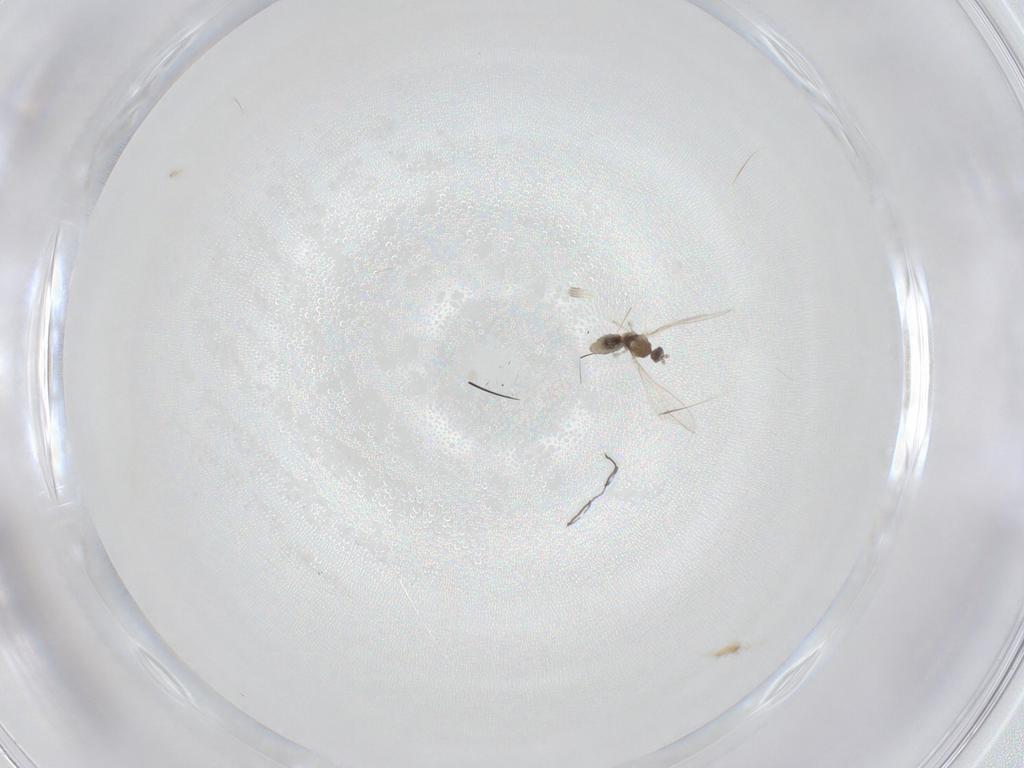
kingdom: Animalia
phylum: Arthropoda
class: Insecta
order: Diptera
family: Cecidomyiidae
